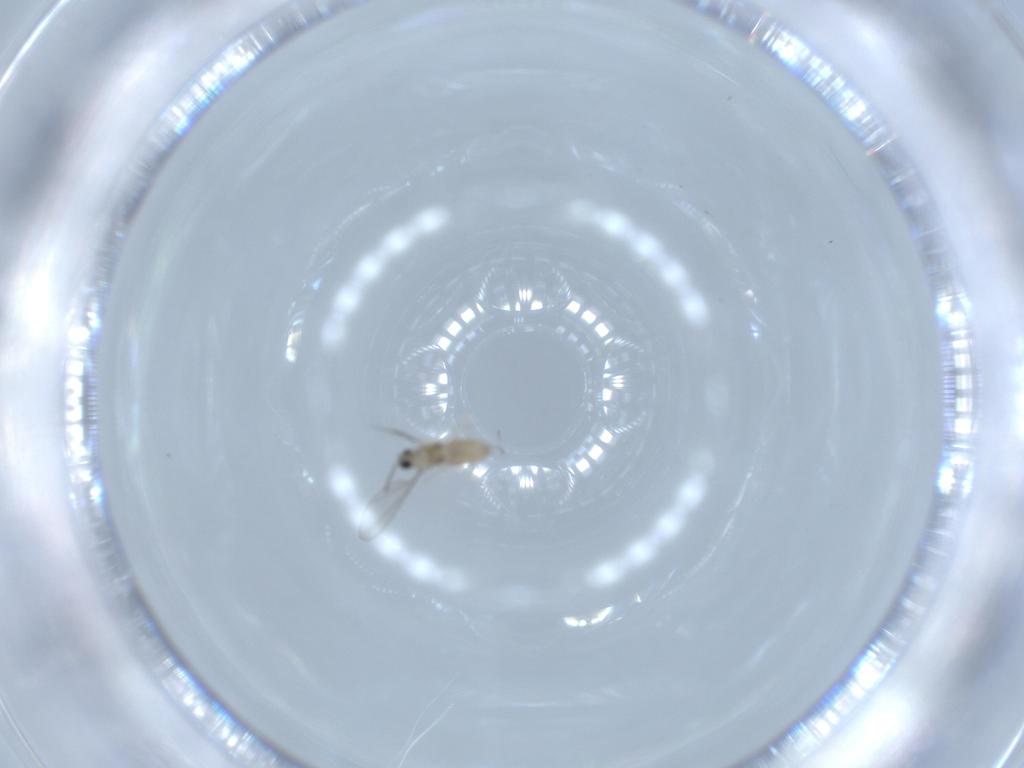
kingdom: Animalia
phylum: Arthropoda
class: Insecta
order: Diptera
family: Cecidomyiidae
